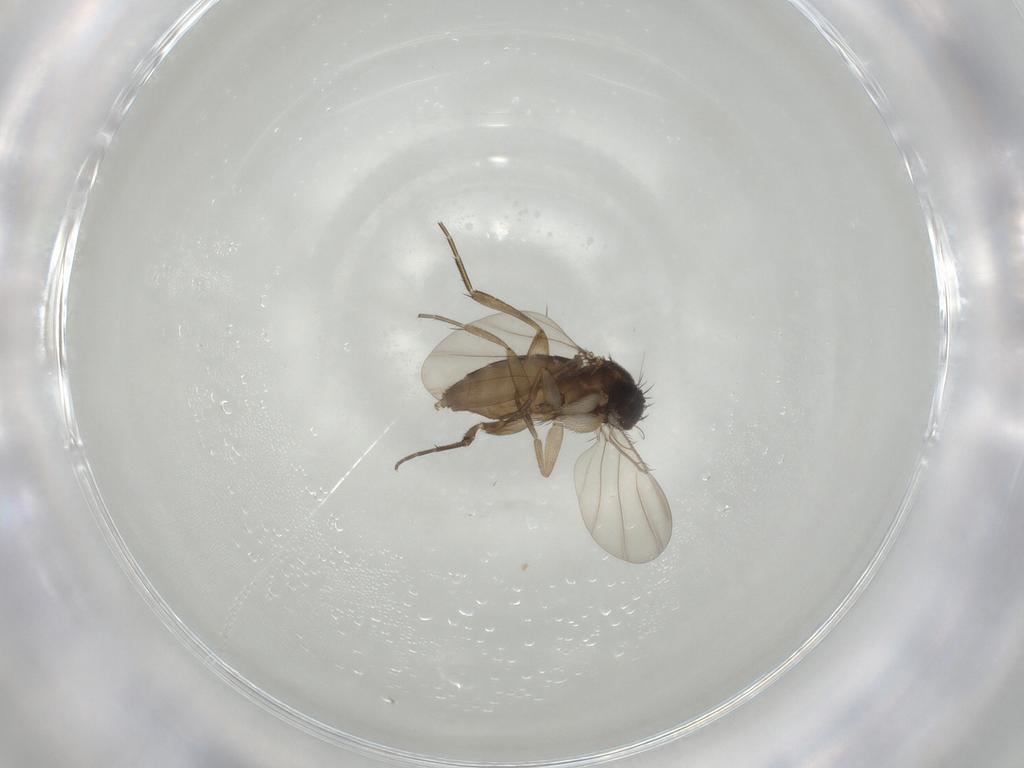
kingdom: Animalia
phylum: Arthropoda
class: Insecta
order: Diptera
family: Phoridae
